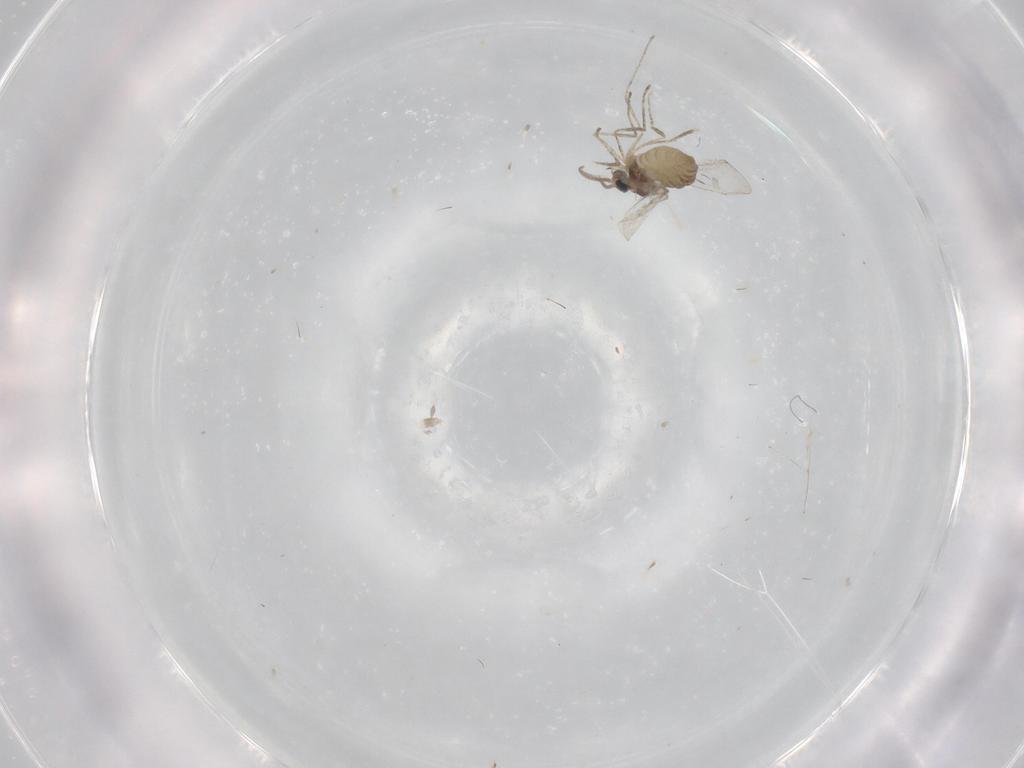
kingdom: Animalia
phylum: Arthropoda
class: Insecta
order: Diptera
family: Cecidomyiidae
